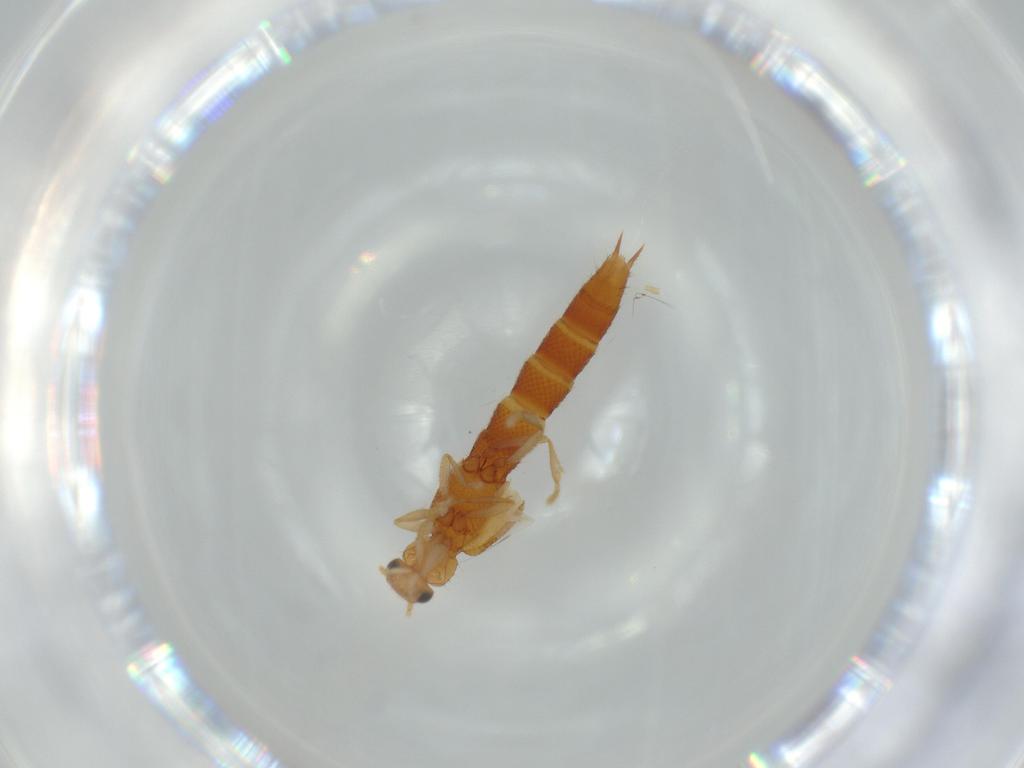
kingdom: Animalia
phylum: Arthropoda
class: Insecta
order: Coleoptera
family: Staphylinidae
